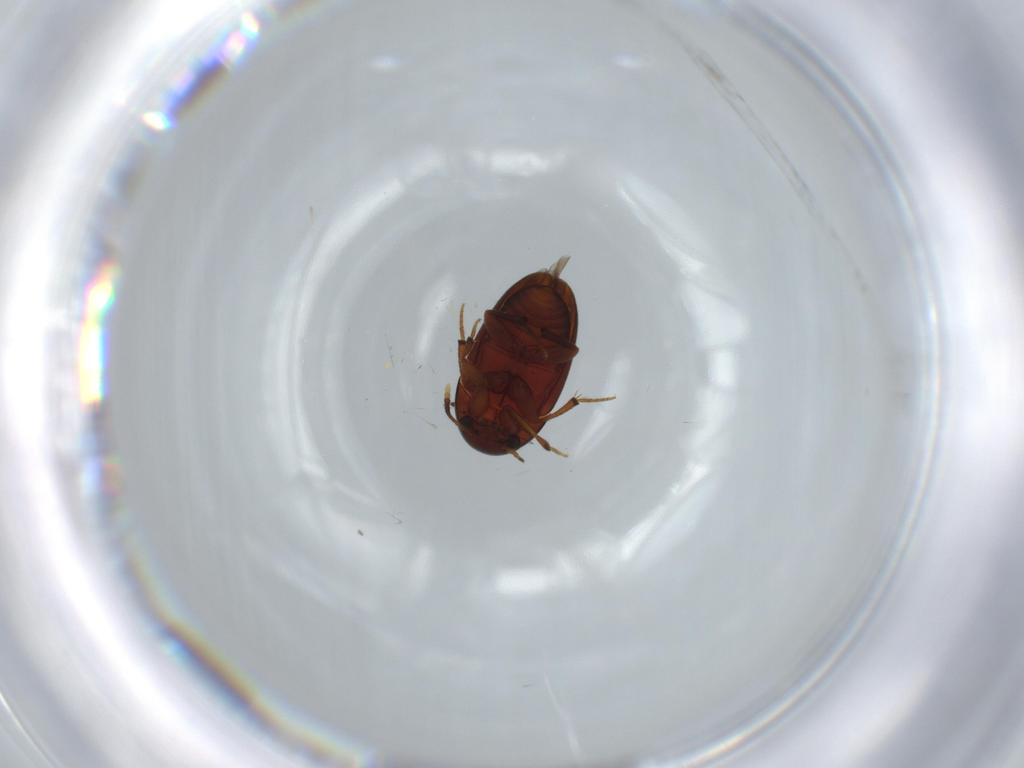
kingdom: Animalia
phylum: Arthropoda
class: Insecta
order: Coleoptera
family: Leiodidae
